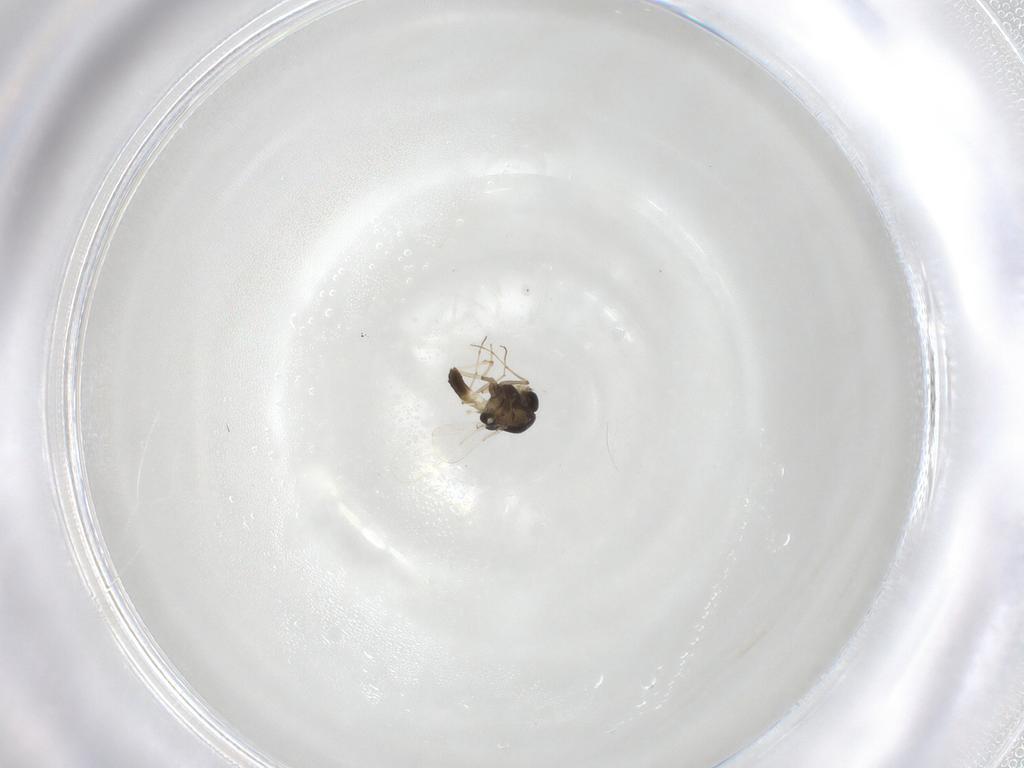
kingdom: Animalia
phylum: Arthropoda
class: Insecta
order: Diptera
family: Chironomidae
